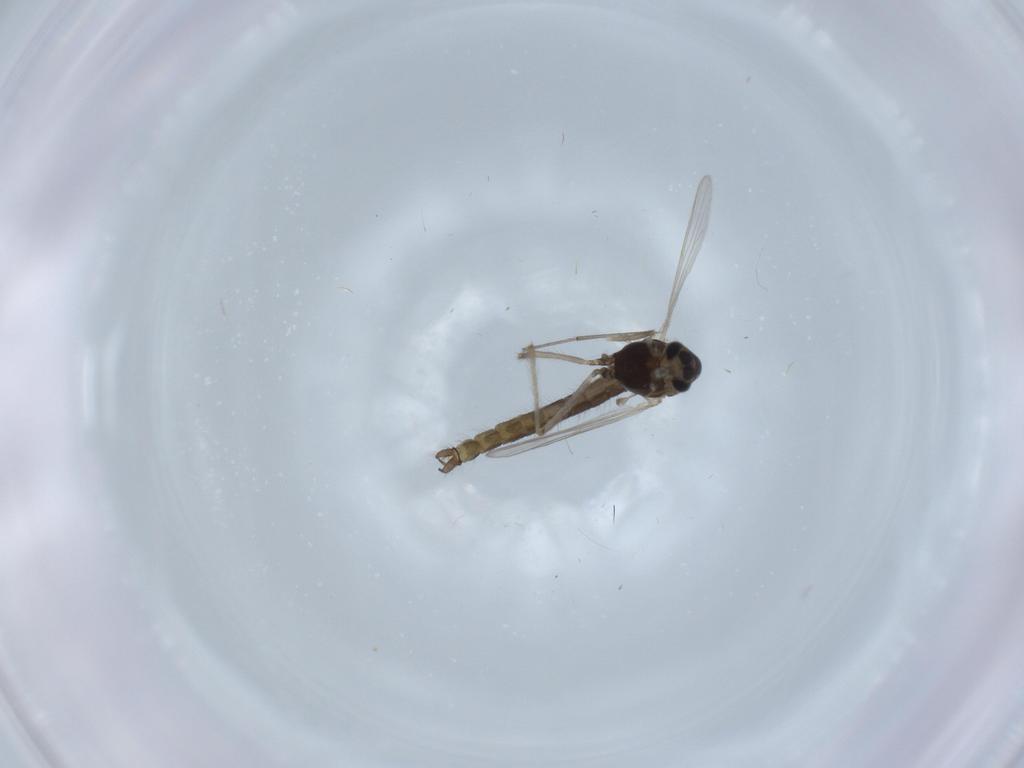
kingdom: Animalia
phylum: Arthropoda
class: Insecta
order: Diptera
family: Chironomidae
